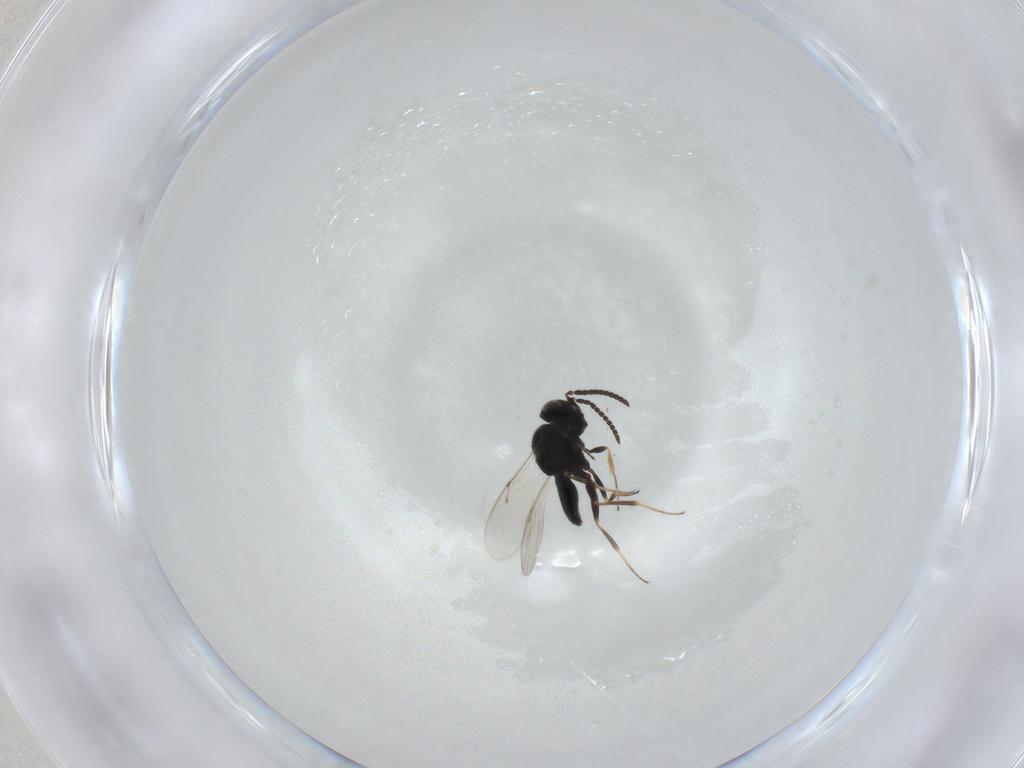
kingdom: Animalia
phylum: Arthropoda
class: Insecta
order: Hymenoptera
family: Scelionidae
